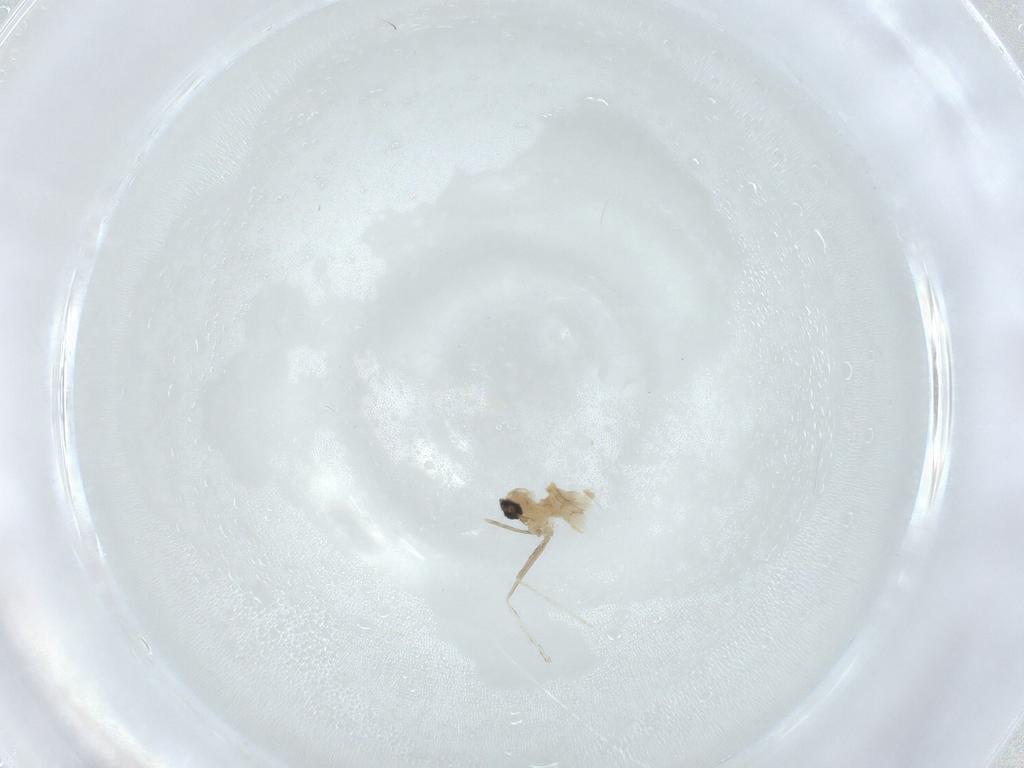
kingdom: Animalia
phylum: Arthropoda
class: Insecta
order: Diptera
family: Cecidomyiidae
